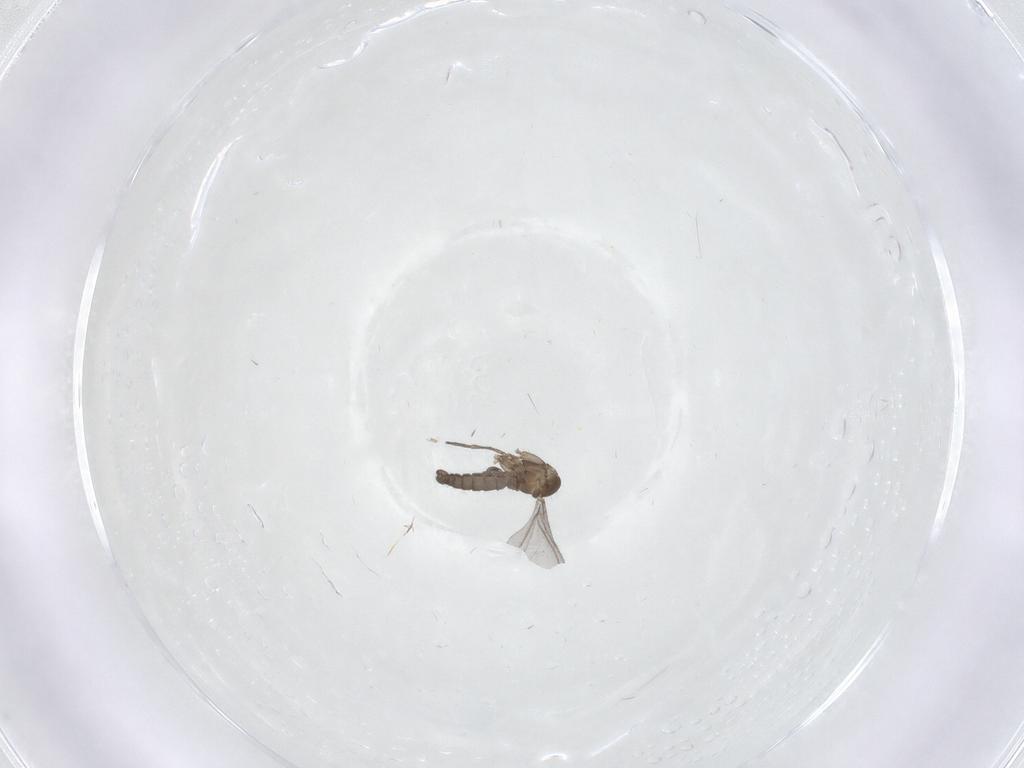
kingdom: Animalia
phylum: Arthropoda
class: Insecta
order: Diptera
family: Sciaridae
